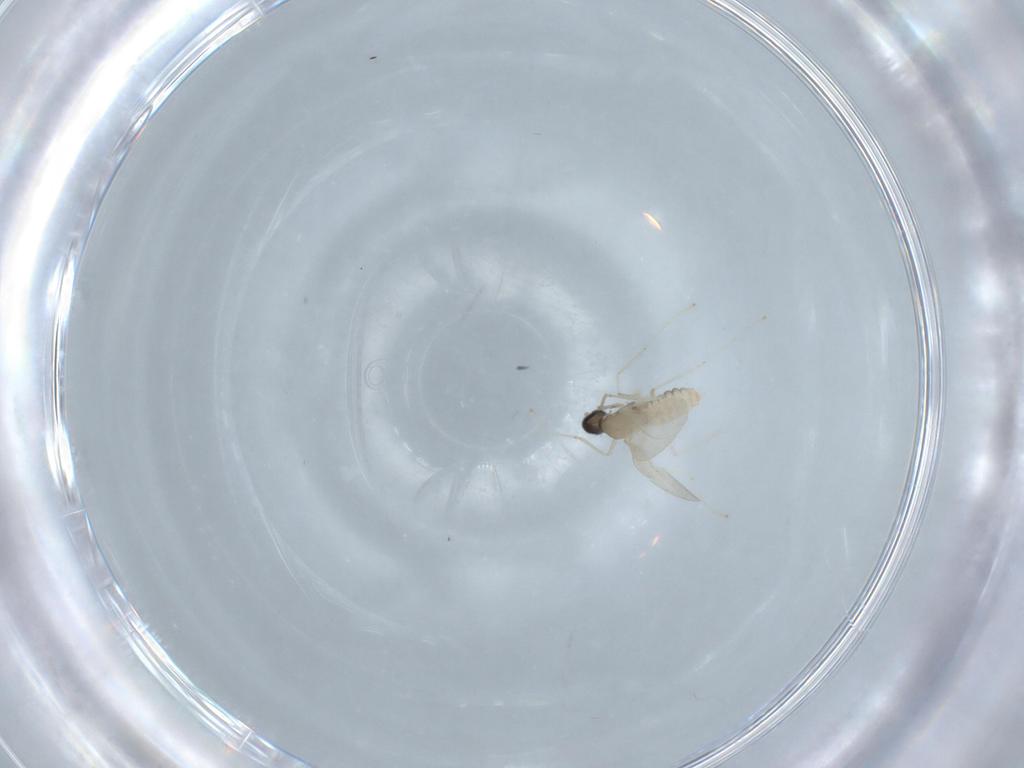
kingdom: Animalia
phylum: Arthropoda
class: Insecta
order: Diptera
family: Cecidomyiidae
